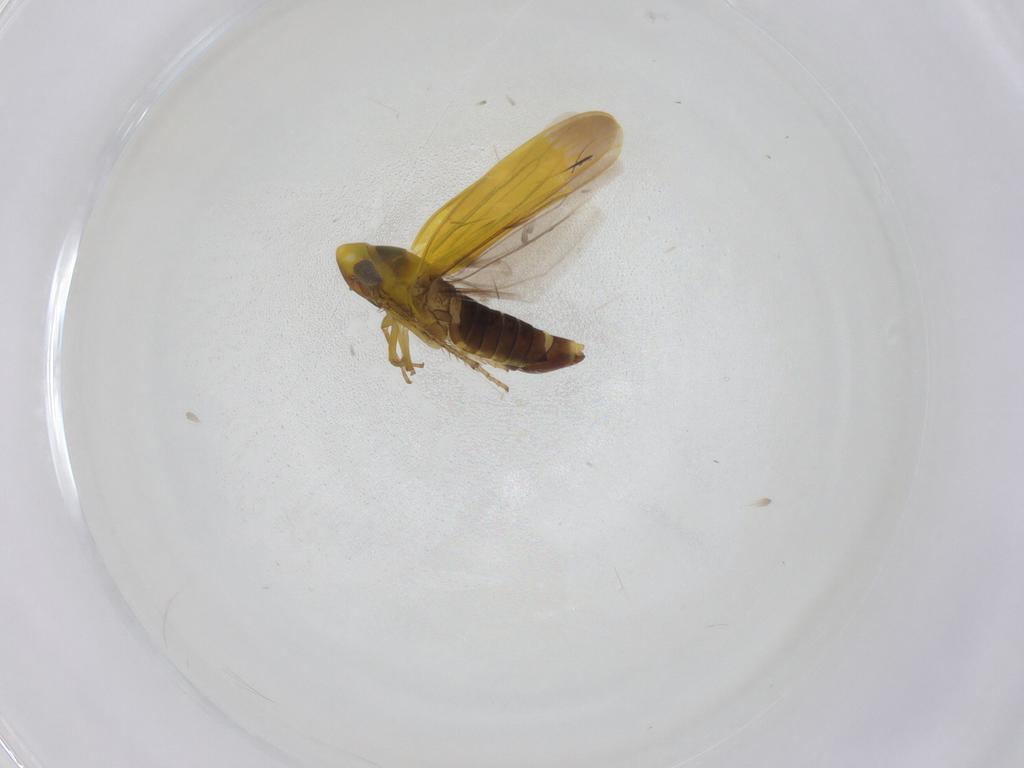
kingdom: Animalia
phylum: Arthropoda
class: Insecta
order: Hemiptera
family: Cicadellidae
